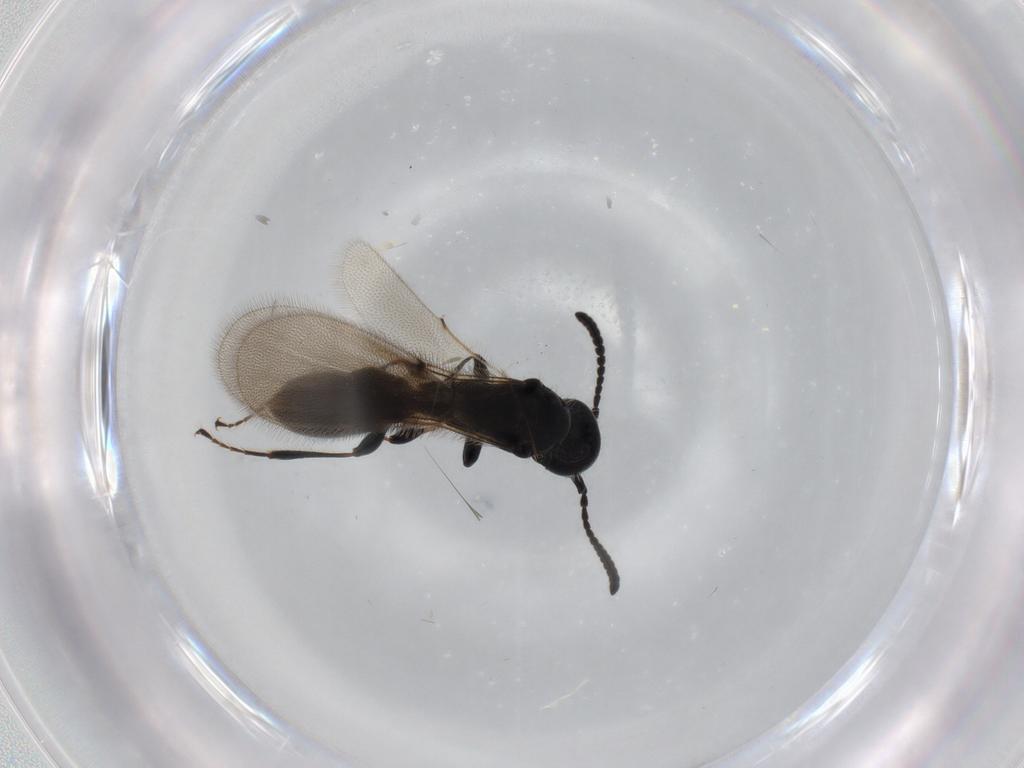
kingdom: Animalia
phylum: Arthropoda
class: Insecta
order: Hymenoptera
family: Diapriidae
